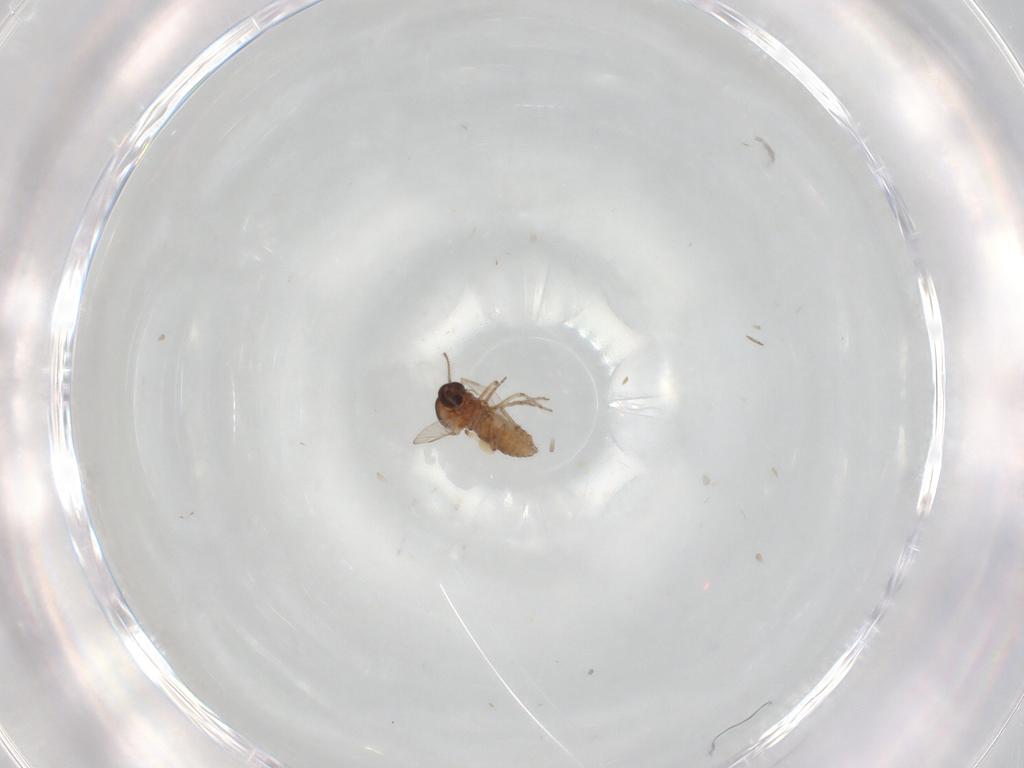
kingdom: Animalia
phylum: Arthropoda
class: Insecta
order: Diptera
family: Ceratopogonidae
